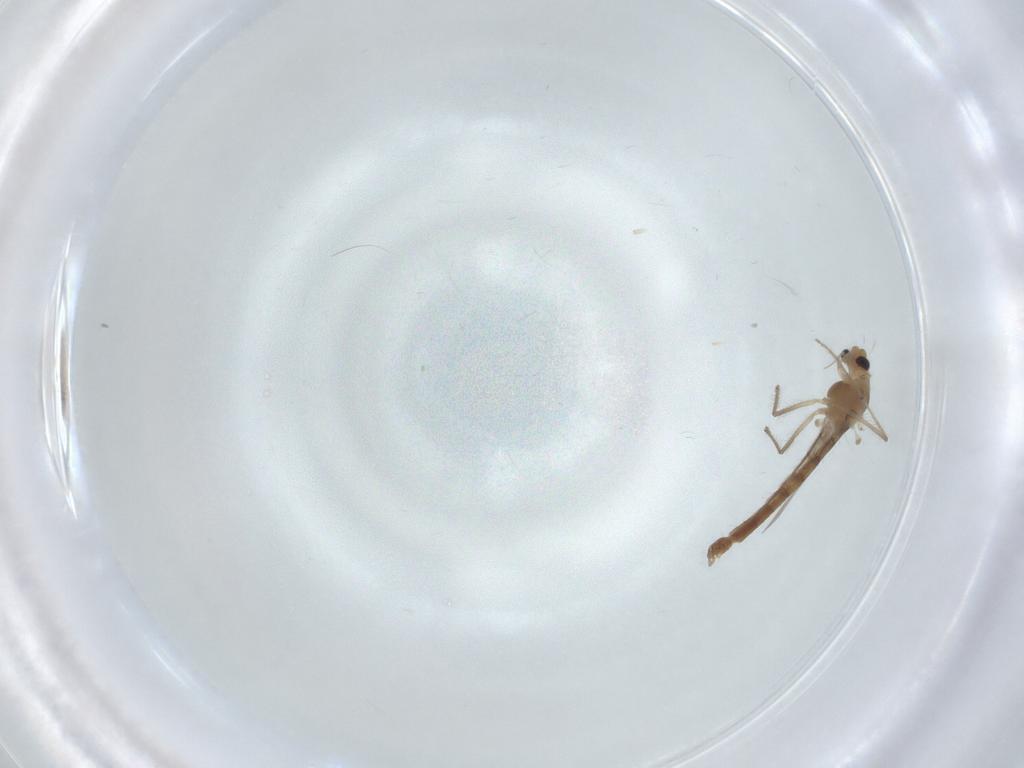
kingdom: Animalia
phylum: Arthropoda
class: Insecta
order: Diptera
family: Chironomidae
